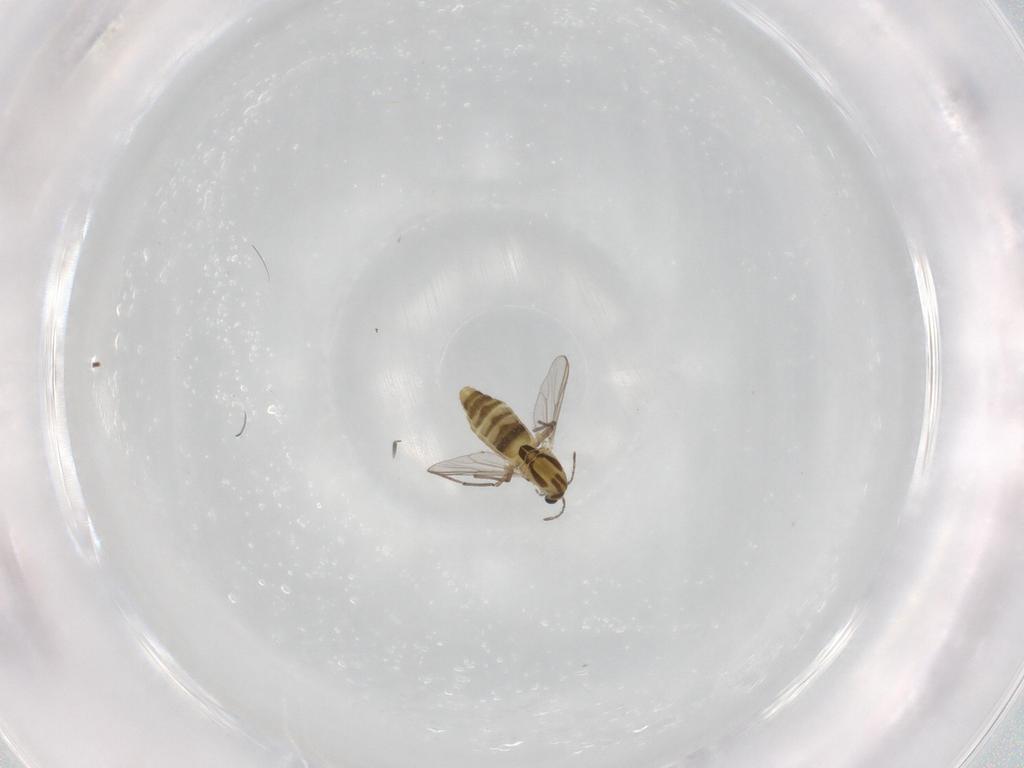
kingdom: Animalia
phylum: Arthropoda
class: Insecta
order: Diptera
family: Chironomidae
